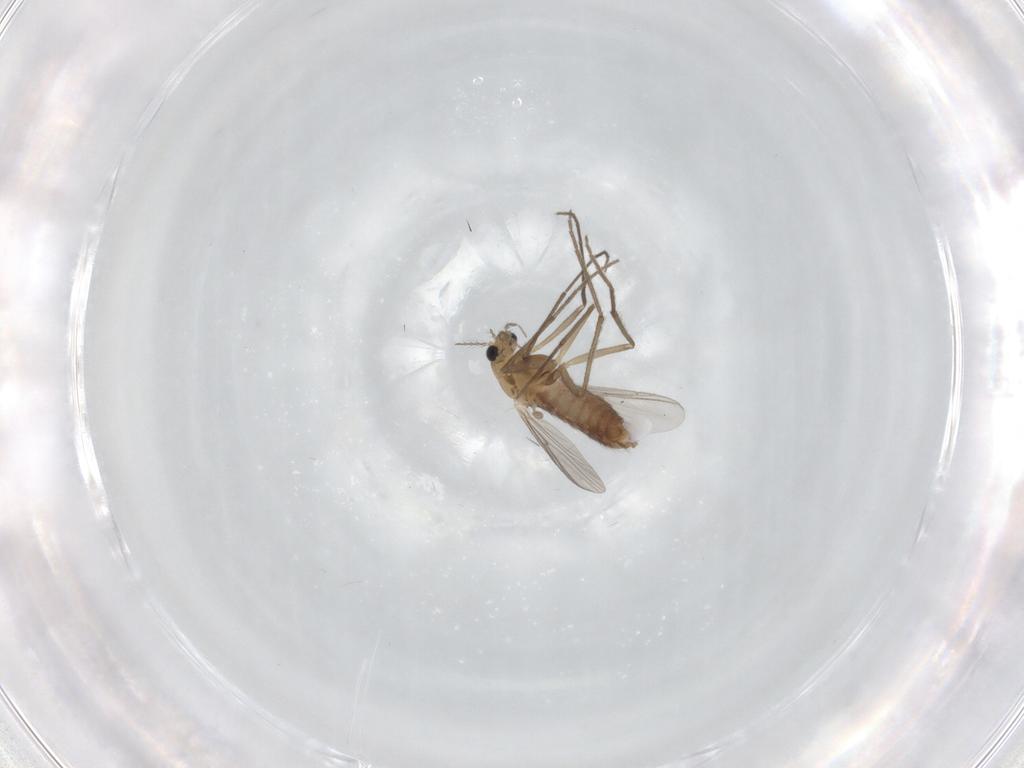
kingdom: Animalia
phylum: Arthropoda
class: Insecta
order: Diptera
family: Chironomidae
